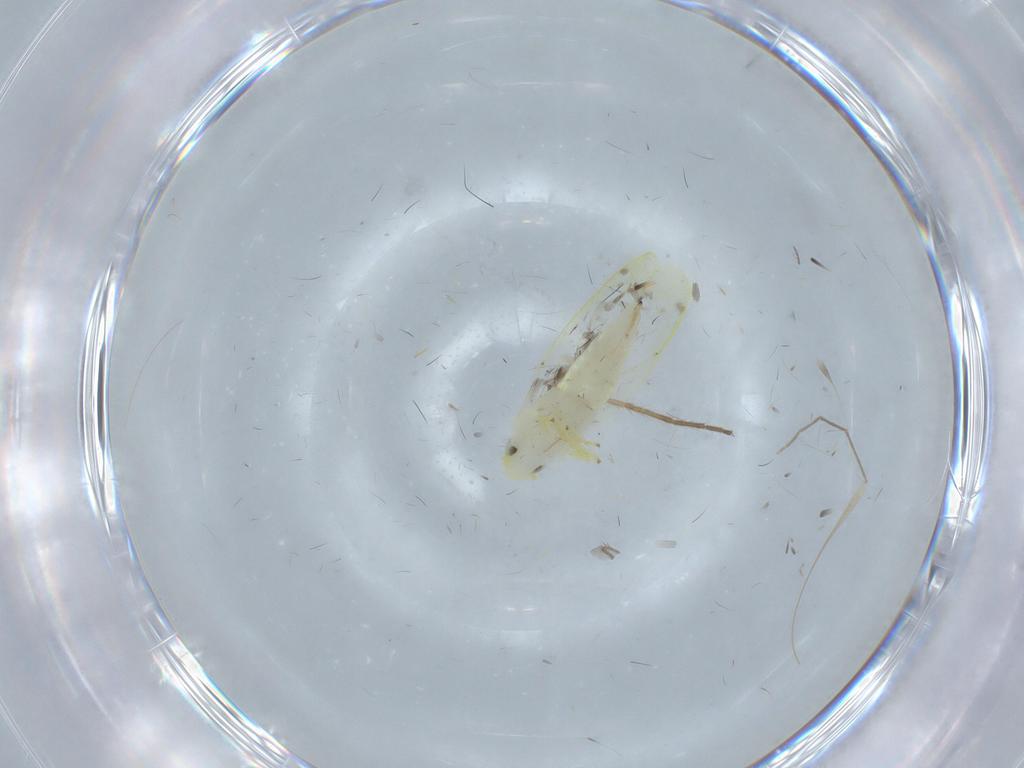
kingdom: Animalia
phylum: Arthropoda
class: Insecta
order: Hemiptera
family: Cicadellidae
